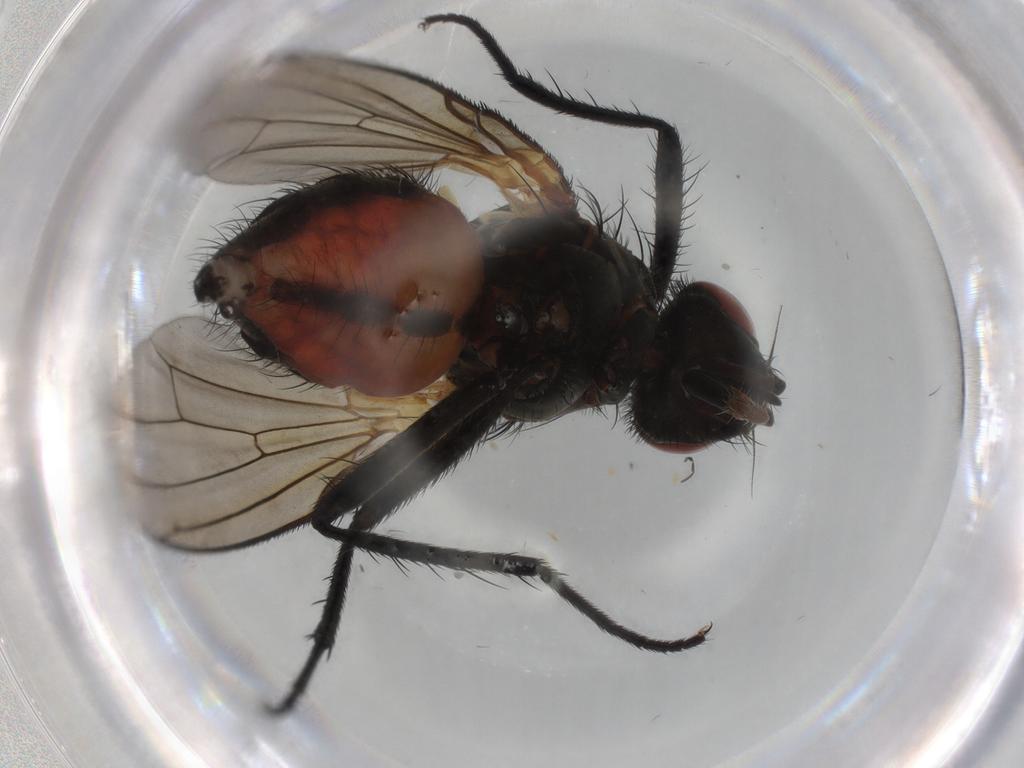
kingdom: Animalia
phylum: Arthropoda
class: Insecta
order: Diptera
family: Anthomyiidae
